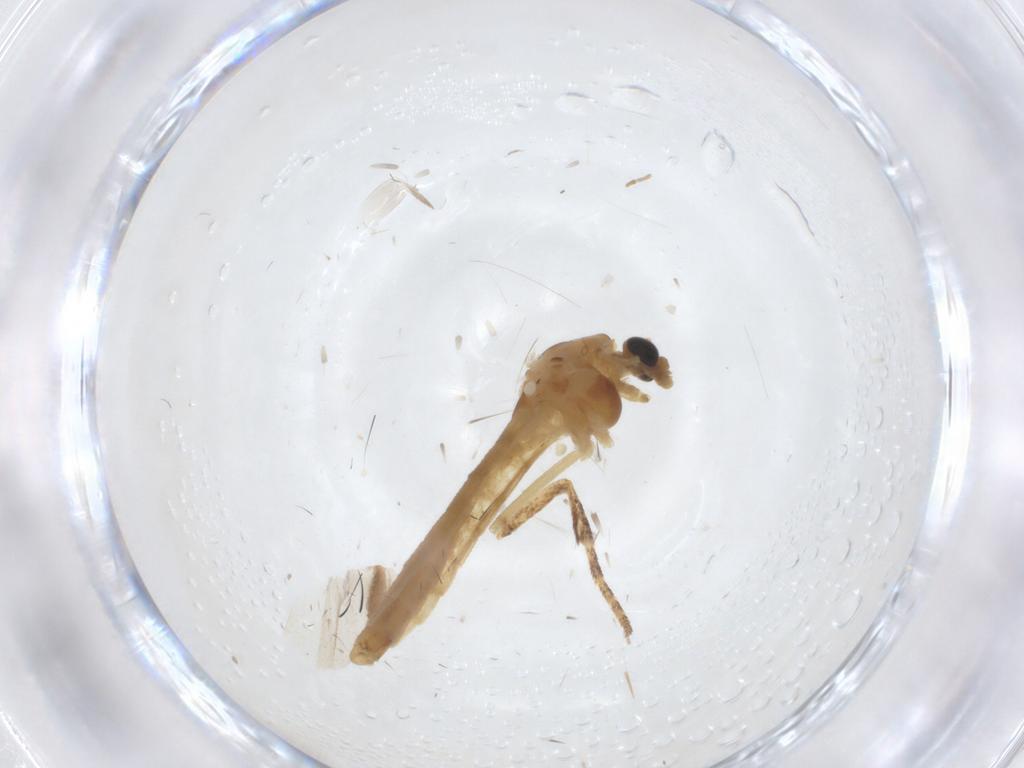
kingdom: Animalia
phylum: Arthropoda
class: Insecta
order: Diptera
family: Chironomidae
